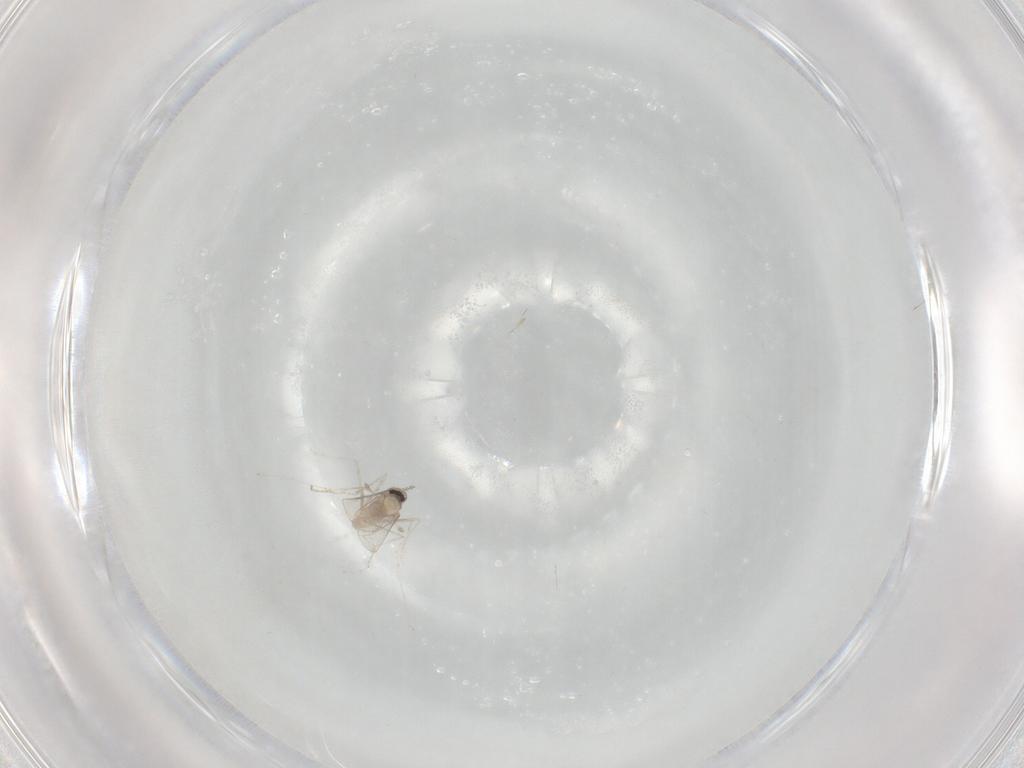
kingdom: Animalia
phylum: Arthropoda
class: Insecta
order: Diptera
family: Cecidomyiidae
